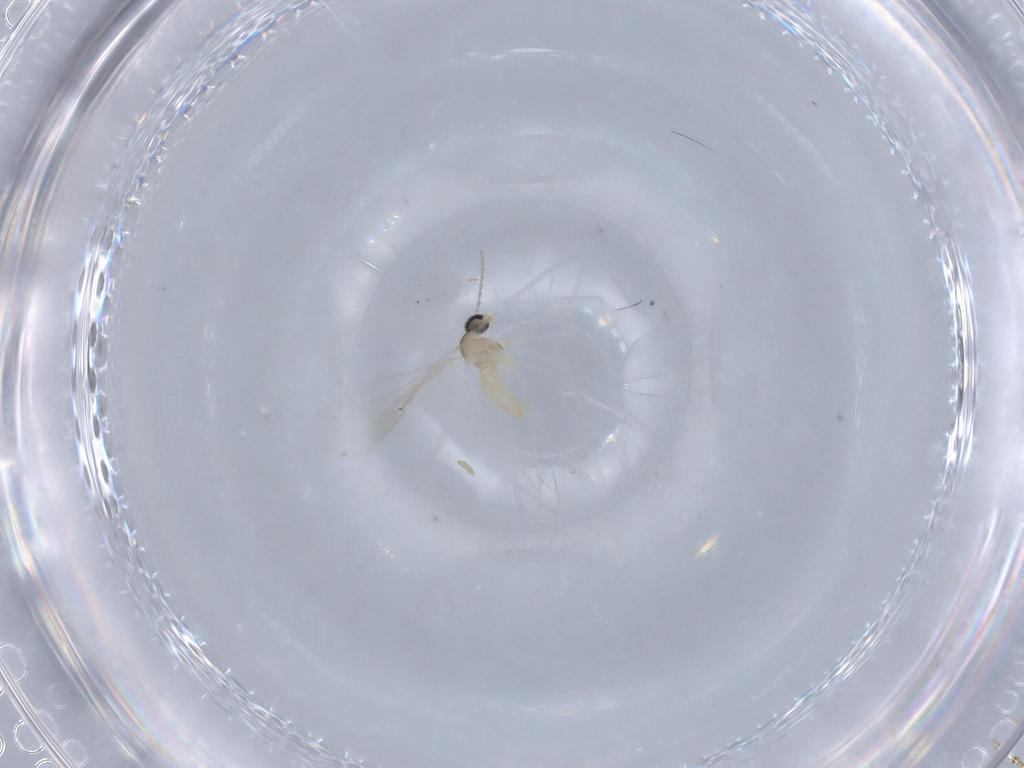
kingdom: Animalia
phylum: Arthropoda
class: Insecta
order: Diptera
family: Cecidomyiidae
